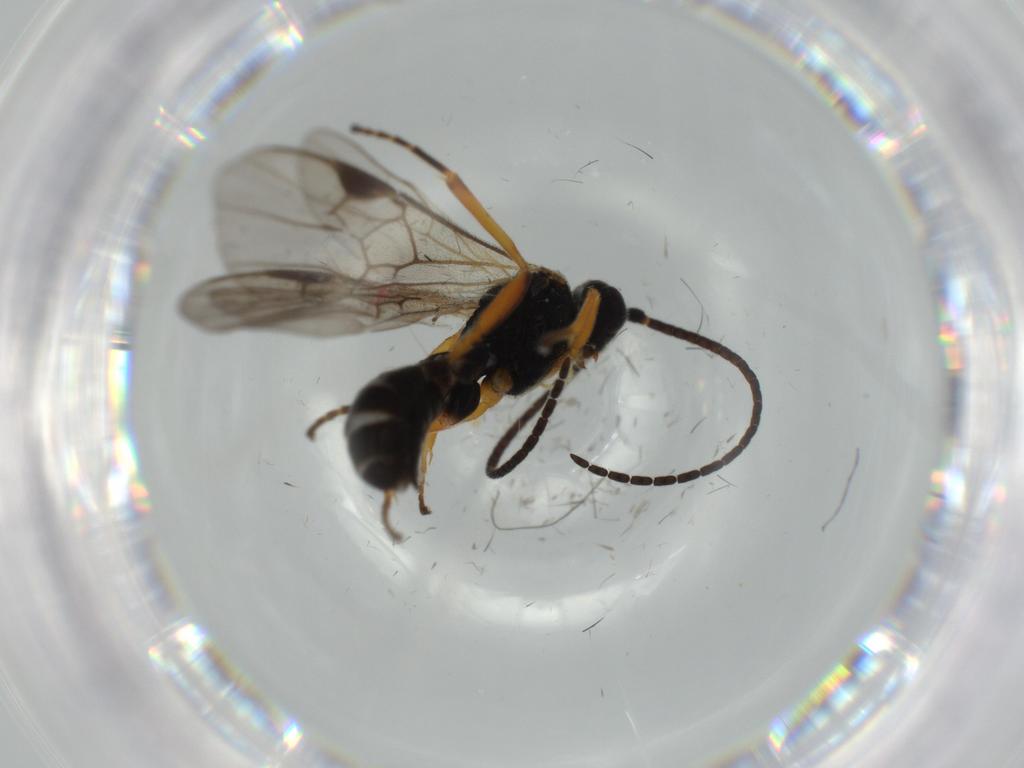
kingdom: Animalia
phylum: Arthropoda
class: Insecta
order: Hymenoptera
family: Braconidae
